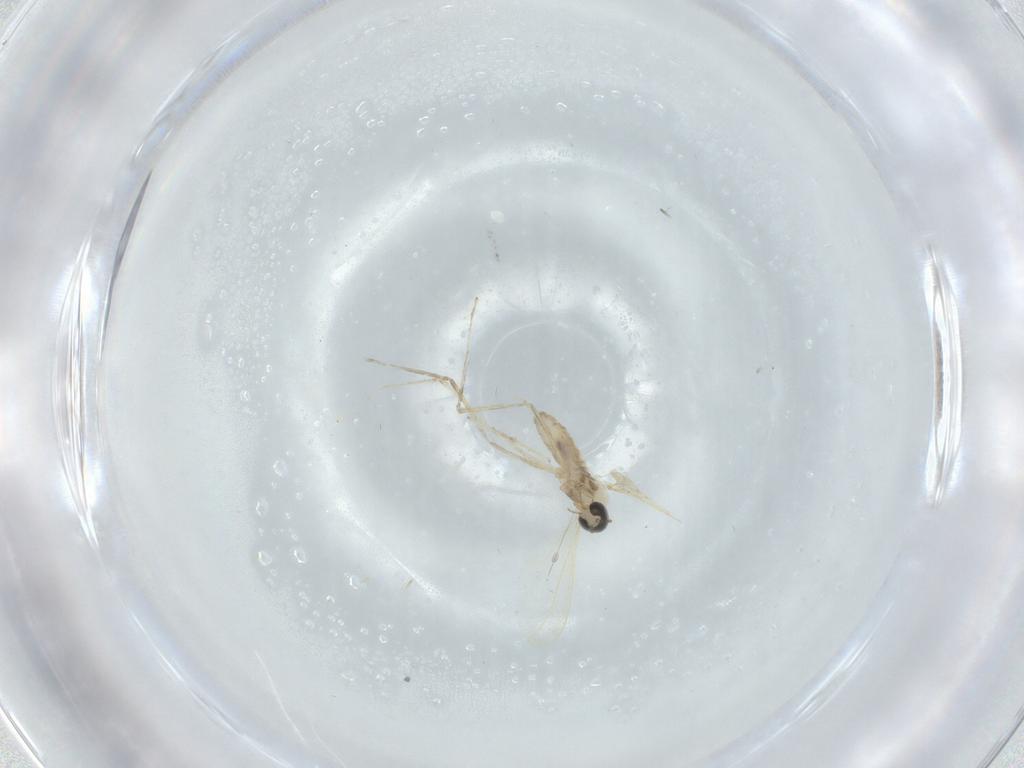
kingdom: Animalia
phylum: Arthropoda
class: Insecta
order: Diptera
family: Cecidomyiidae
